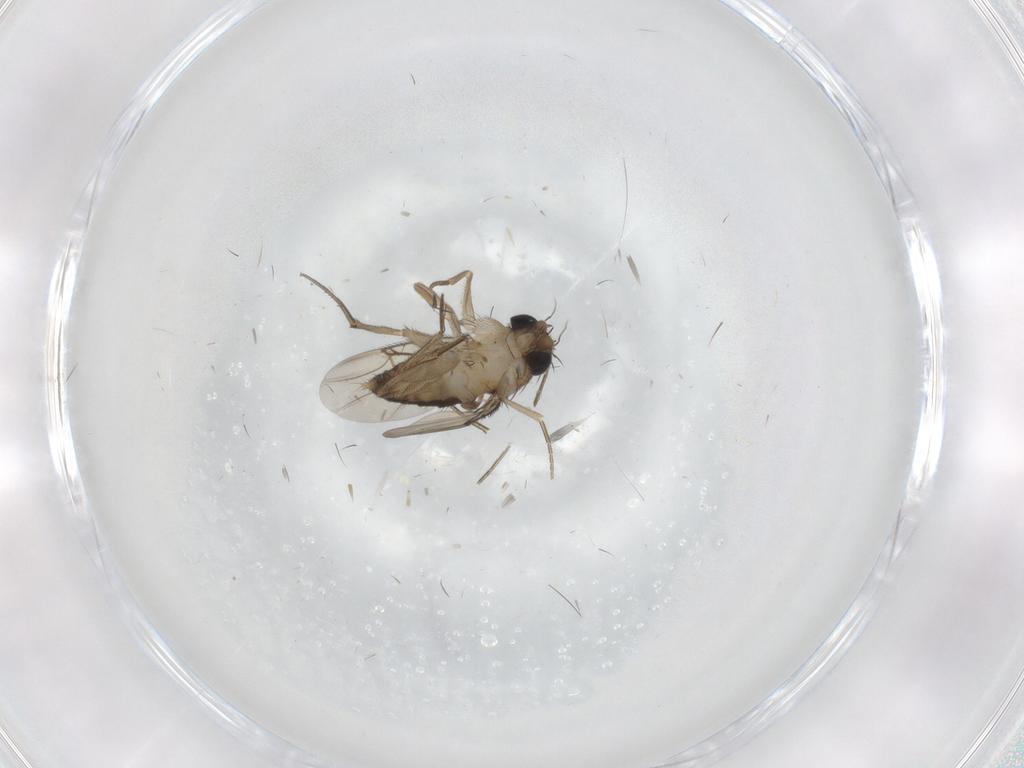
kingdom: Animalia
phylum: Arthropoda
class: Insecta
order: Diptera
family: Phoridae
